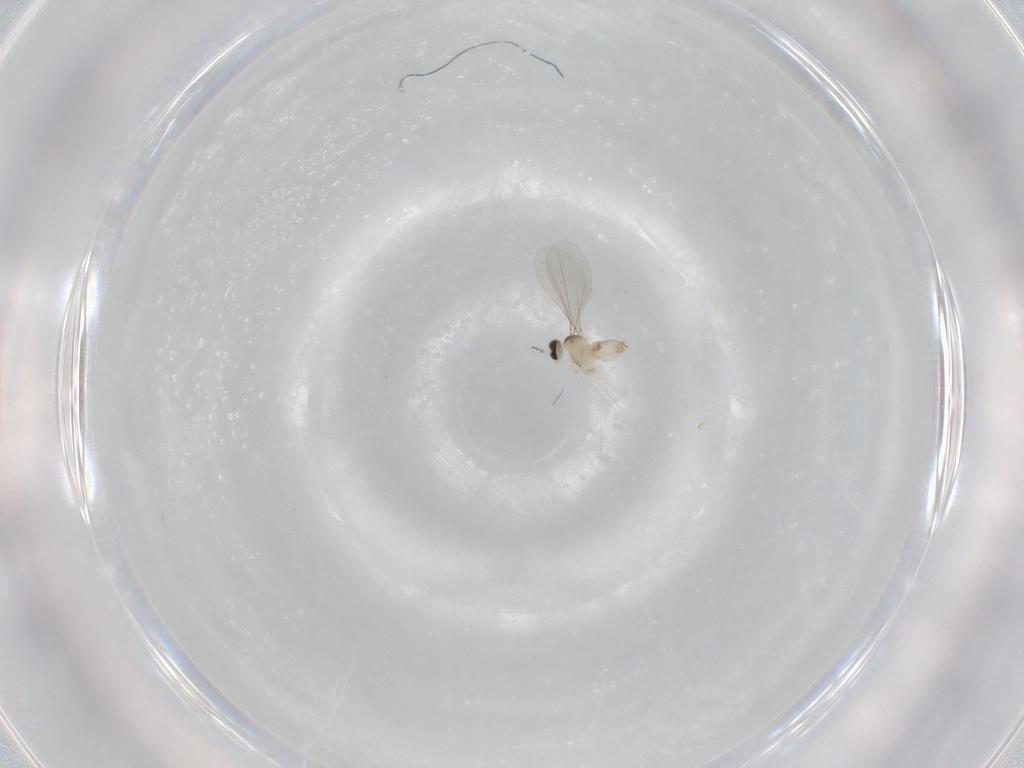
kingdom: Animalia
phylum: Arthropoda
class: Insecta
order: Diptera
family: Cecidomyiidae
